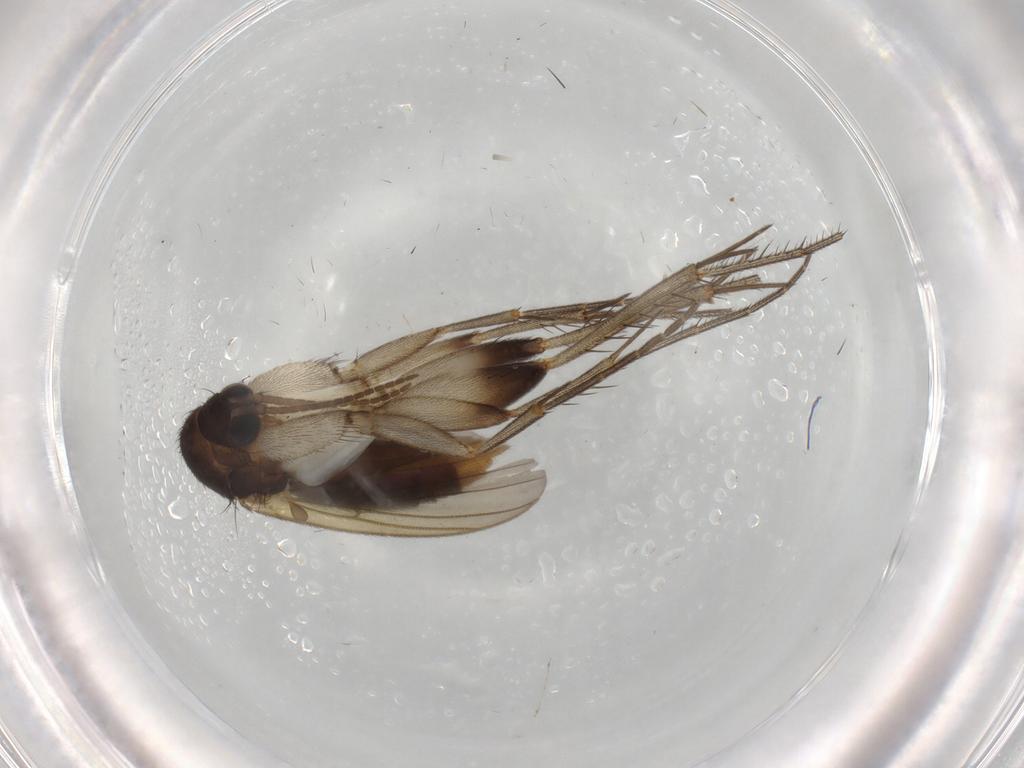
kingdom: Animalia
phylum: Arthropoda
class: Insecta
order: Diptera
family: Mycetophilidae
